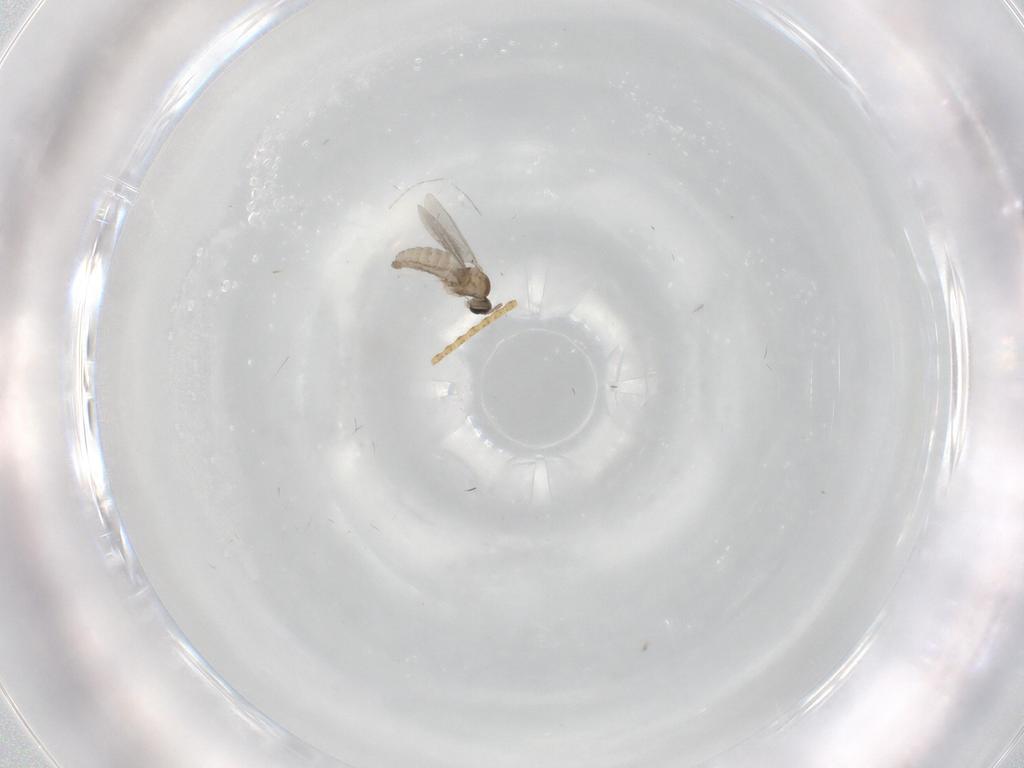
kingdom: Animalia
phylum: Arthropoda
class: Insecta
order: Diptera
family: Cecidomyiidae
